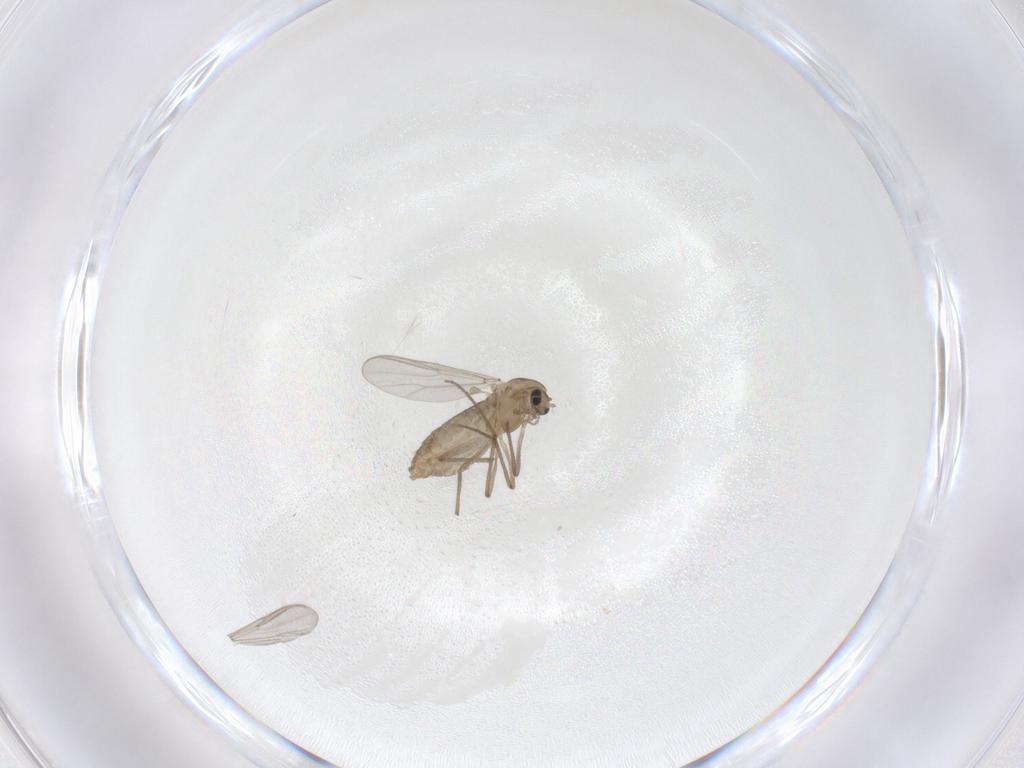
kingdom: Animalia
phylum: Arthropoda
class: Insecta
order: Diptera
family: Chironomidae
